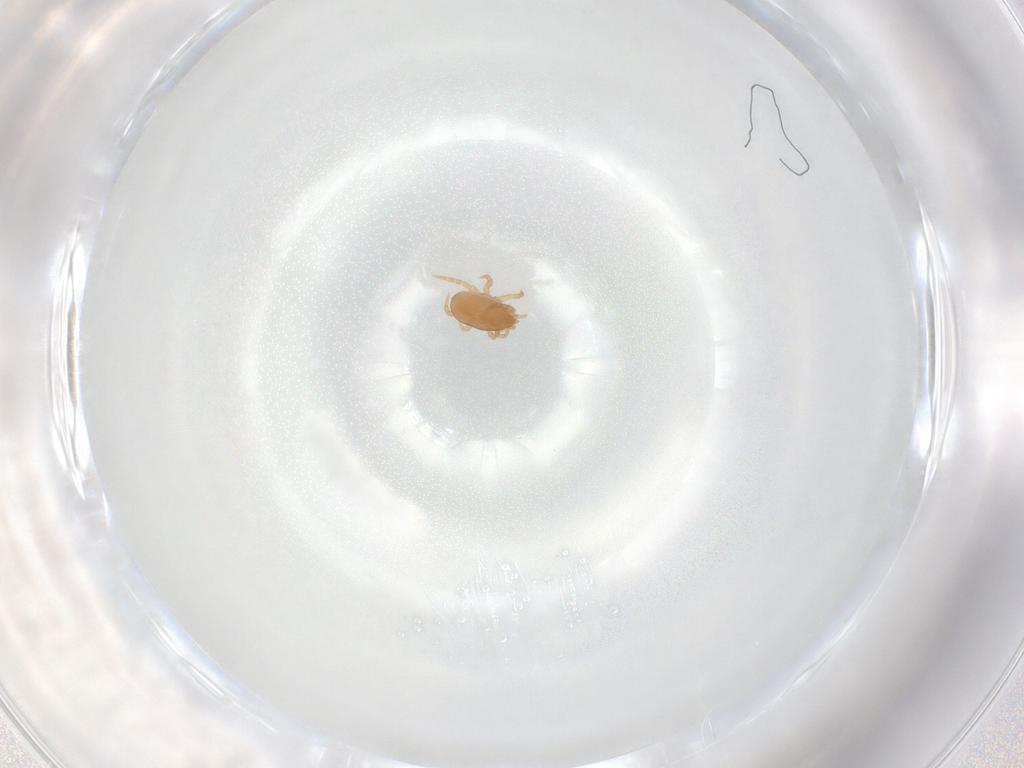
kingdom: Animalia
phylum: Arthropoda
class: Arachnida
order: Mesostigmata
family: Eviphididae
